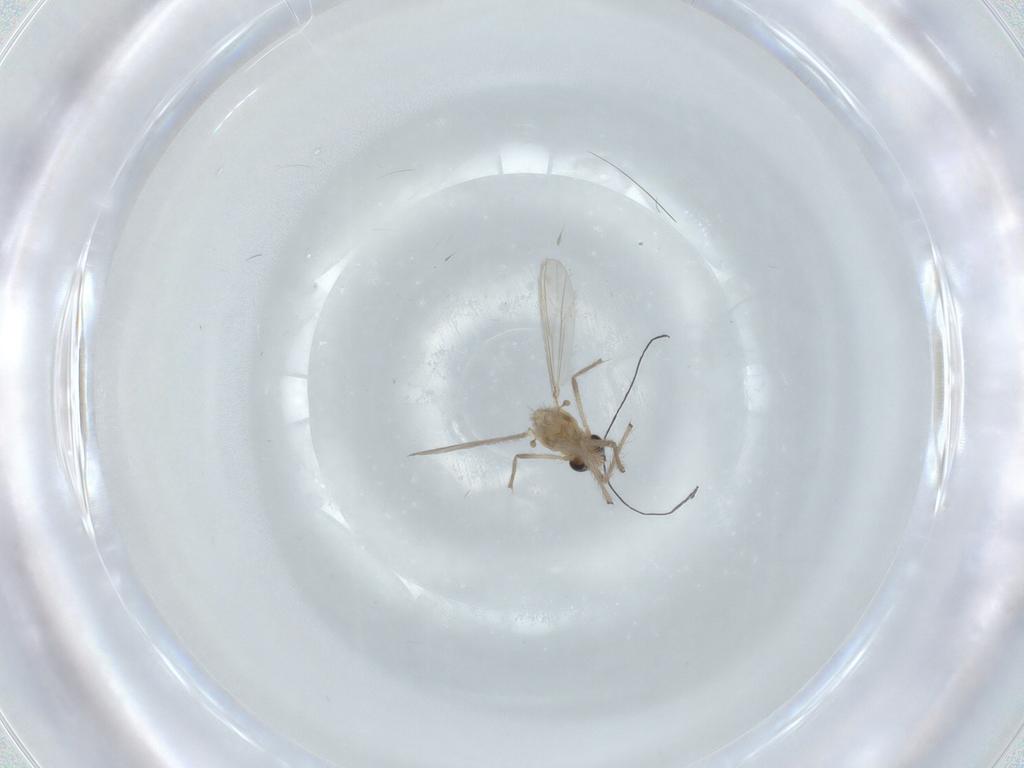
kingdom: Animalia
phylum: Arthropoda
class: Insecta
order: Diptera
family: Chironomidae
